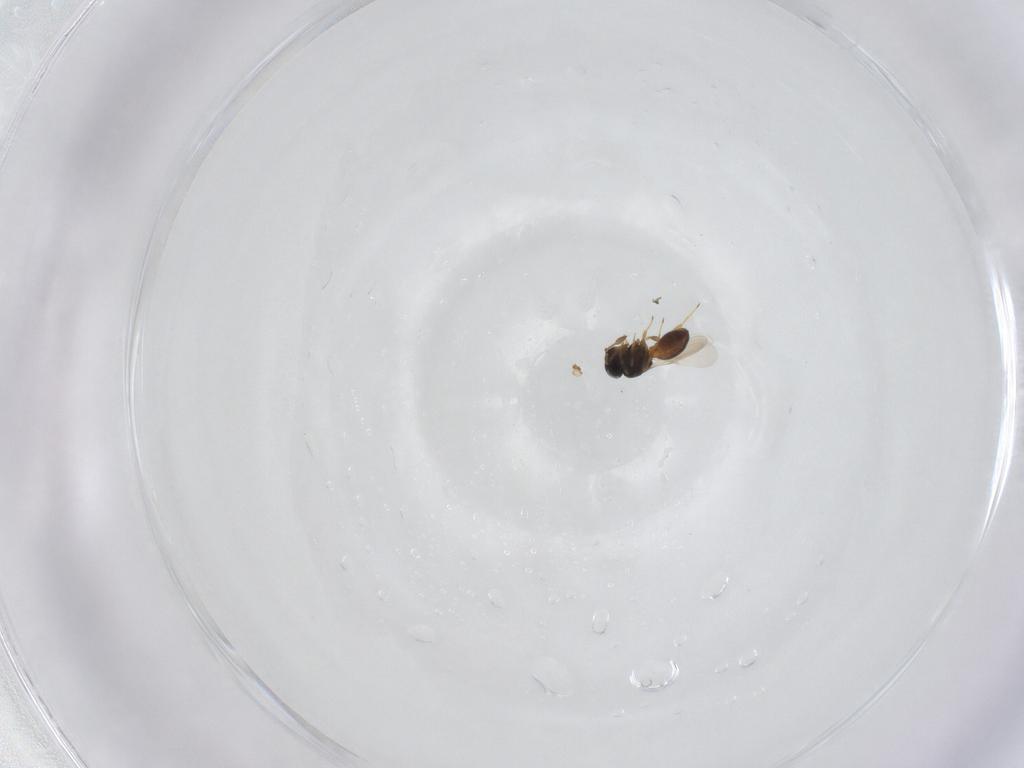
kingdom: Animalia
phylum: Arthropoda
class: Insecta
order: Hymenoptera
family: Scelionidae
